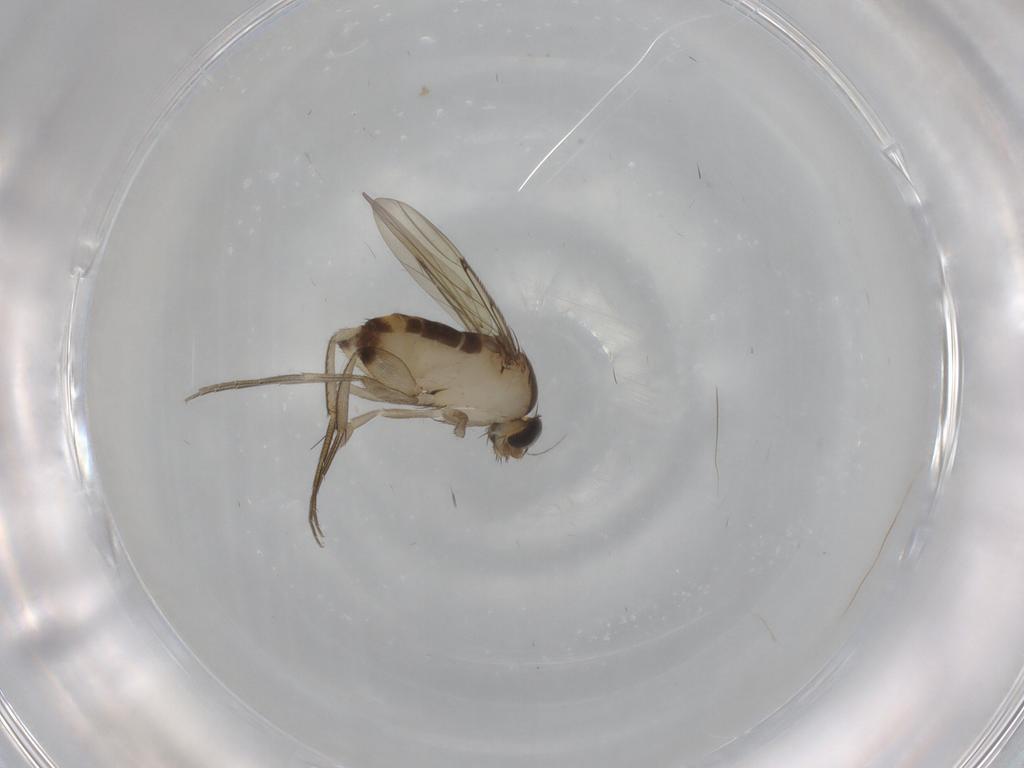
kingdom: Animalia
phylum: Arthropoda
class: Insecta
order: Diptera
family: Phoridae
